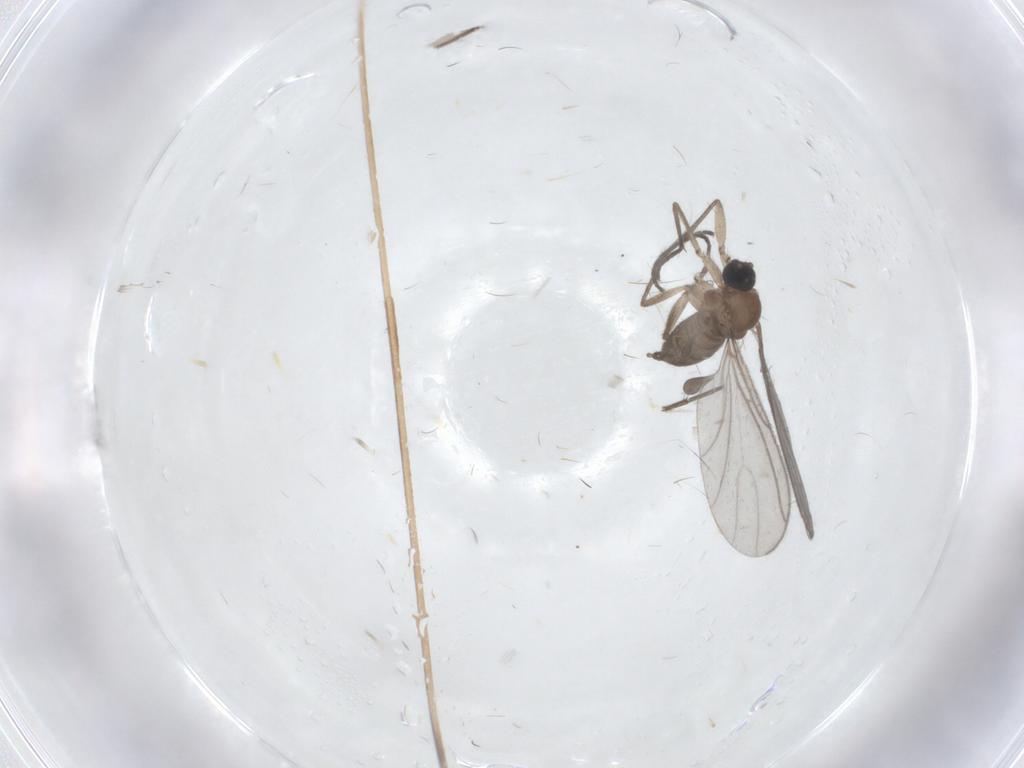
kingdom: Animalia
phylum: Arthropoda
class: Insecta
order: Diptera
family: Sciaridae
